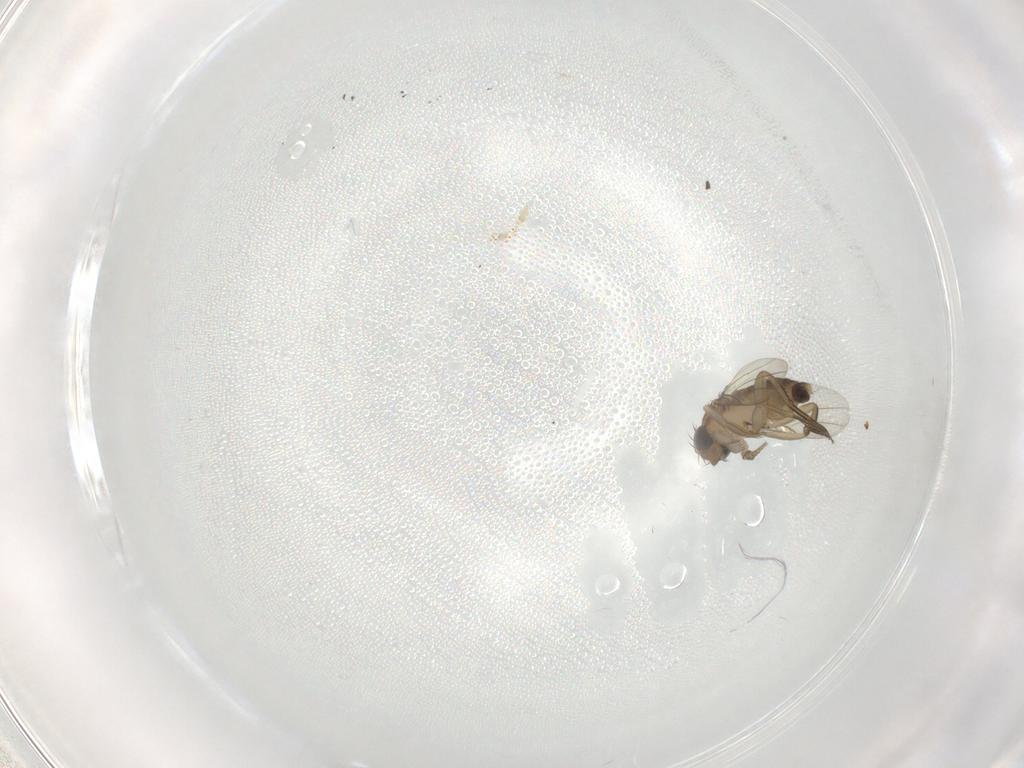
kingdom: Animalia
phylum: Arthropoda
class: Insecta
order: Diptera
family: Phoridae
